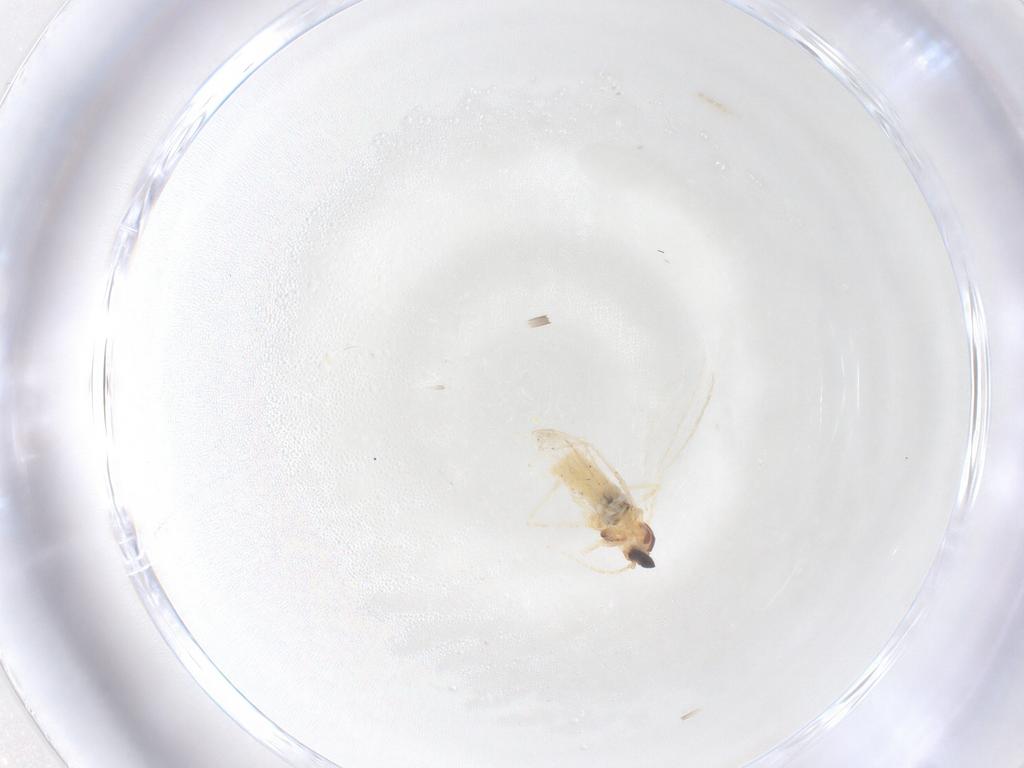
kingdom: Animalia
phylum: Arthropoda
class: Insecta
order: Diptera
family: Cecidomyiidae
